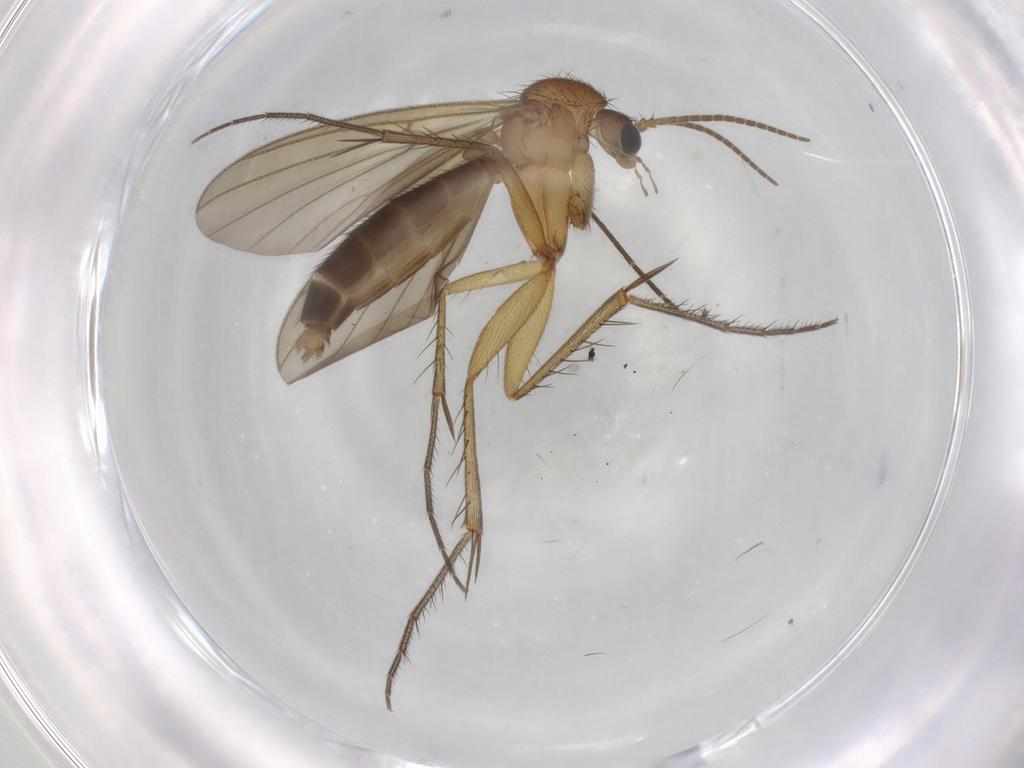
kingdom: Animalia
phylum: Arthropoda
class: Insecta
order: Diptera
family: Mycetophilidae
